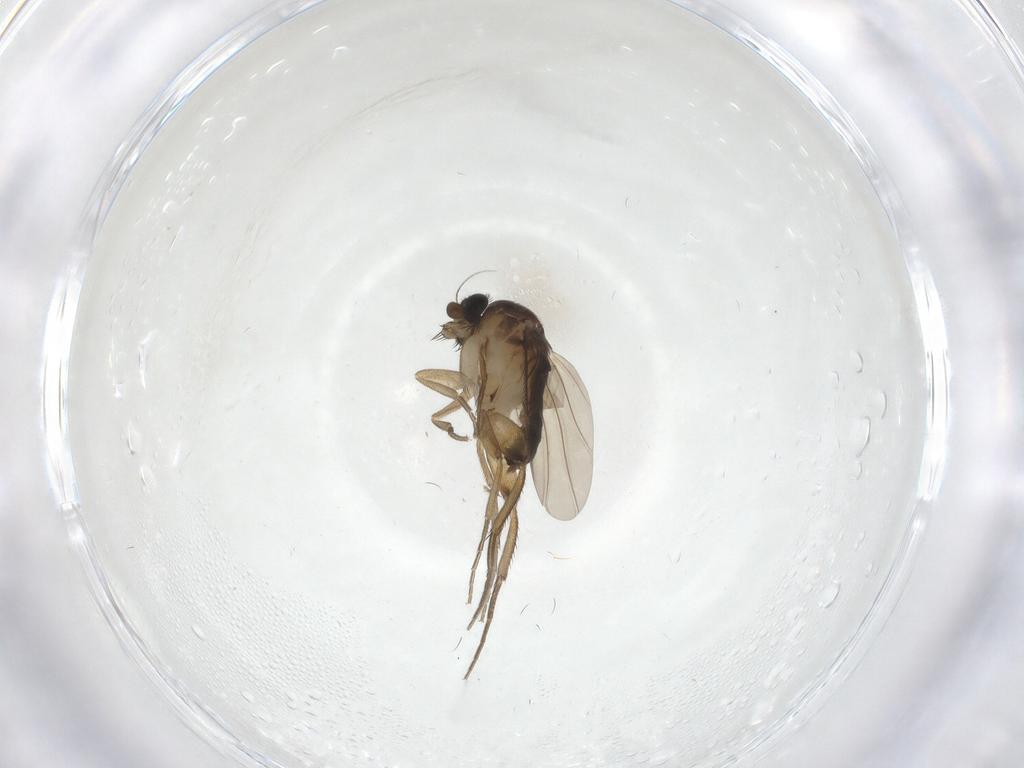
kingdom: Animalia
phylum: Arthropoda
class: Insecta
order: Diptera
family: Phoridae
